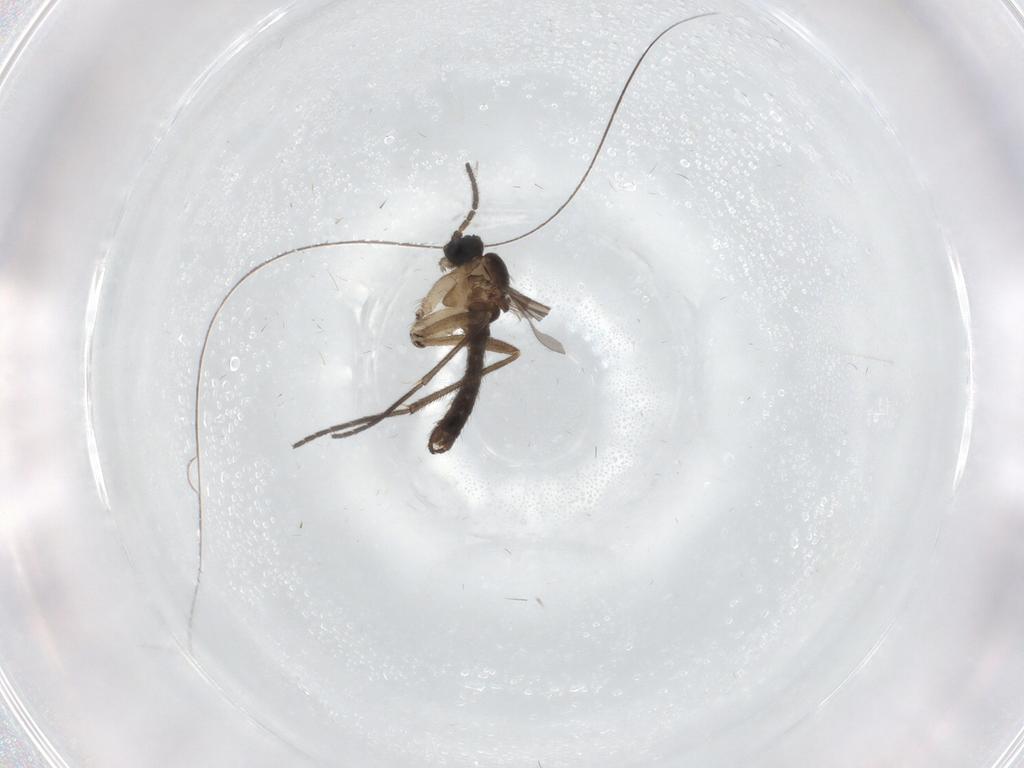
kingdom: Animalia
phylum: Arthropoda
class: Insecta
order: Diptera
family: Sciaridae
